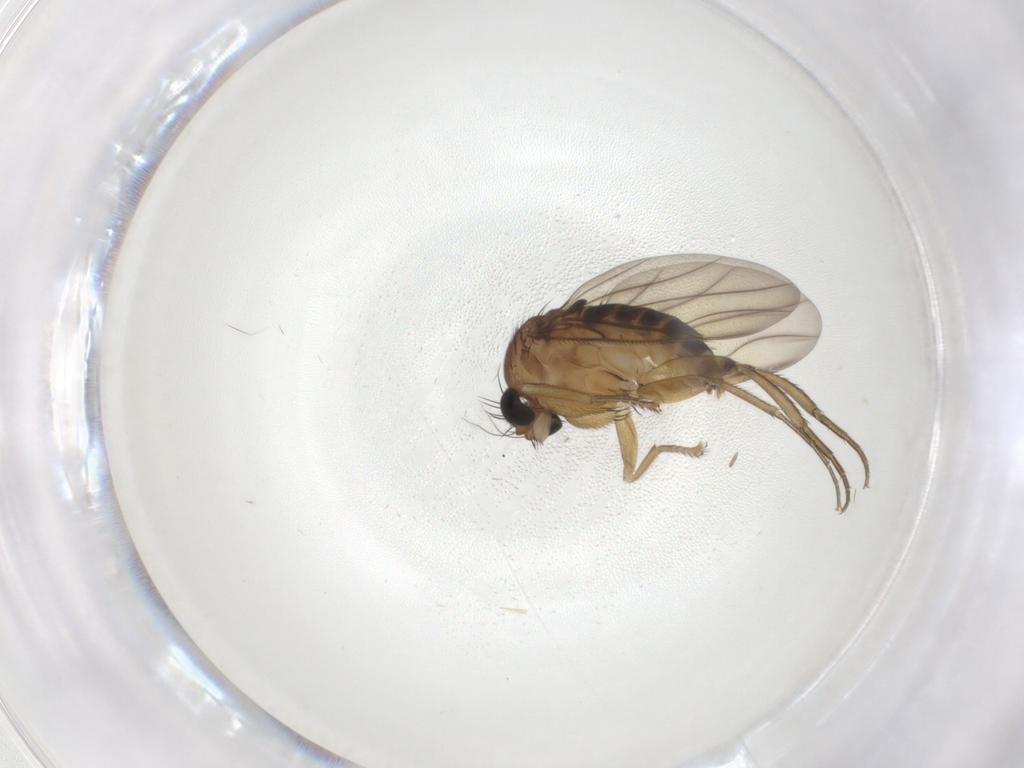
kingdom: Animalia
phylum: Arthropoda
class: Insecta
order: Diptera
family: Phoridae
